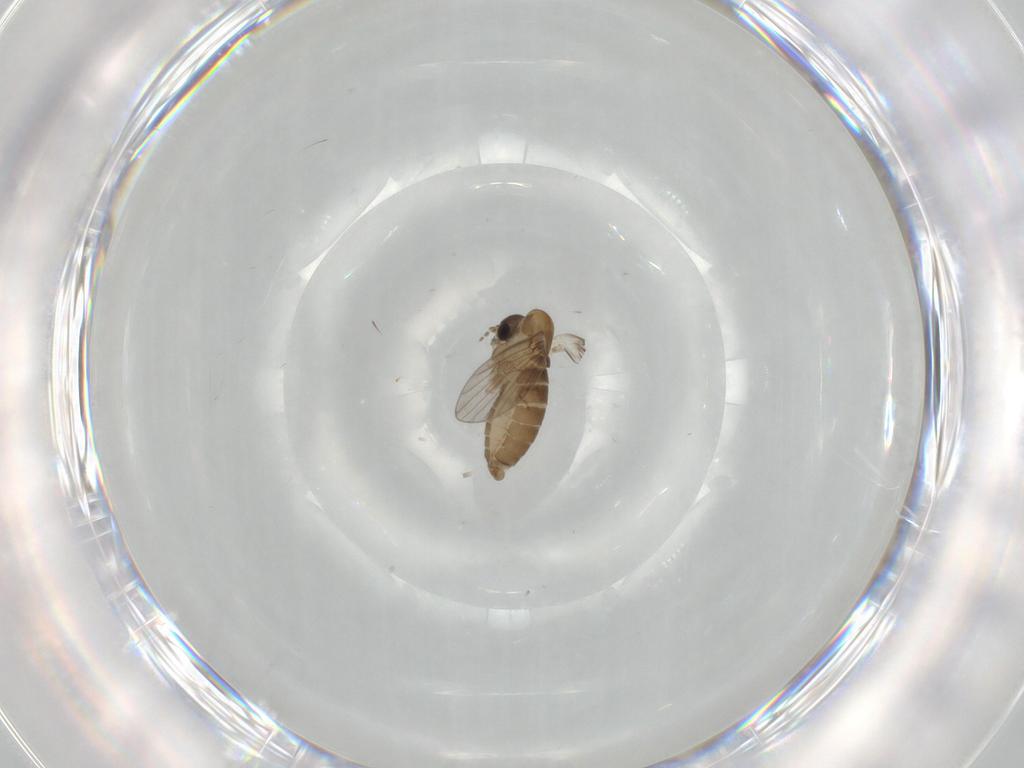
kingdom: Animalia
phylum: Arthropoda
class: Insecta
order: Diptera
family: Psychodidae
